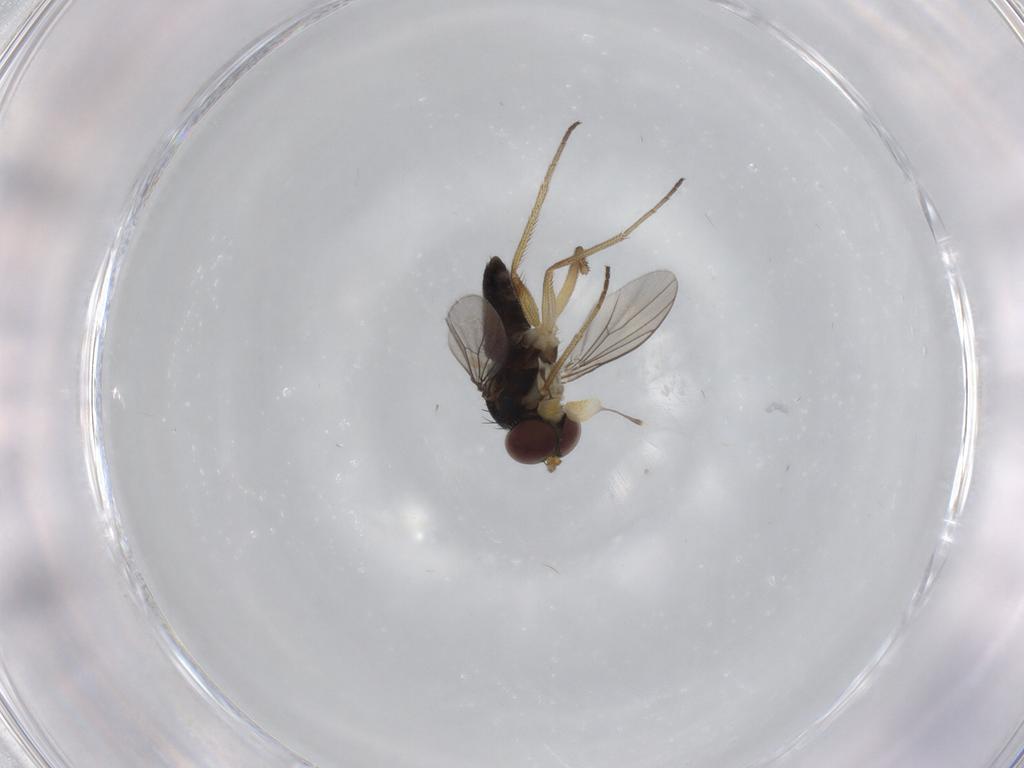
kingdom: Animalia
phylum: Arthropoda
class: Insecta
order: Diptera
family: Dolichopodidae
